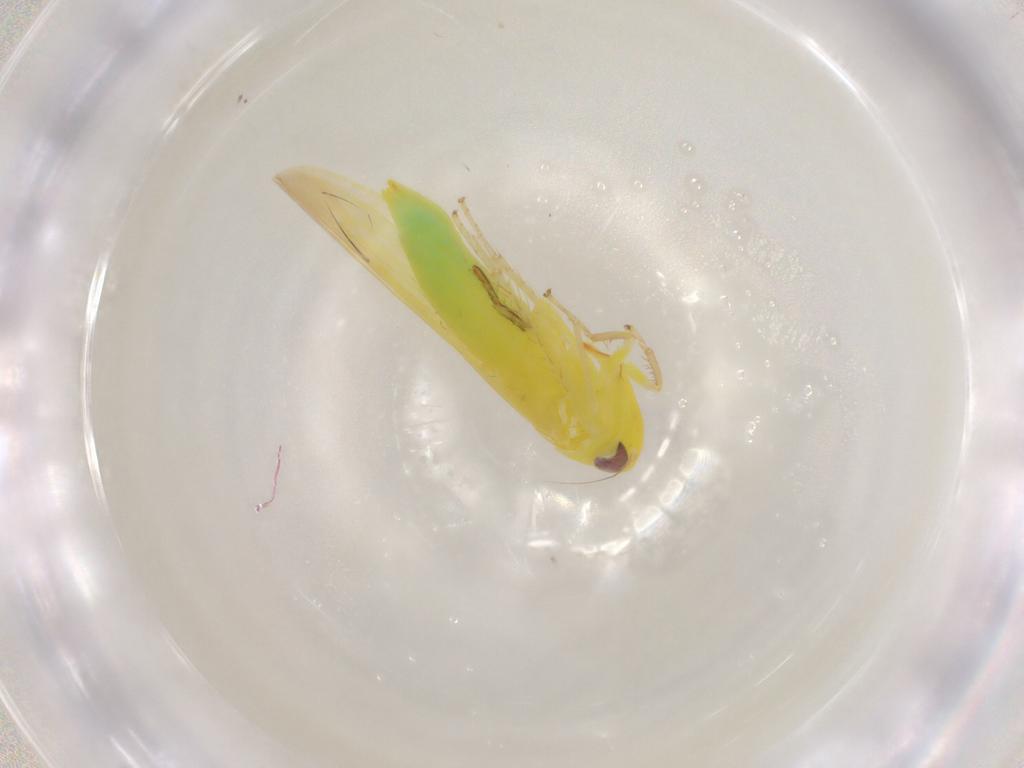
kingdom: Animalia
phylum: Arthropoda
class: Insecta
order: Hemiptera
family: Cicadellidae
